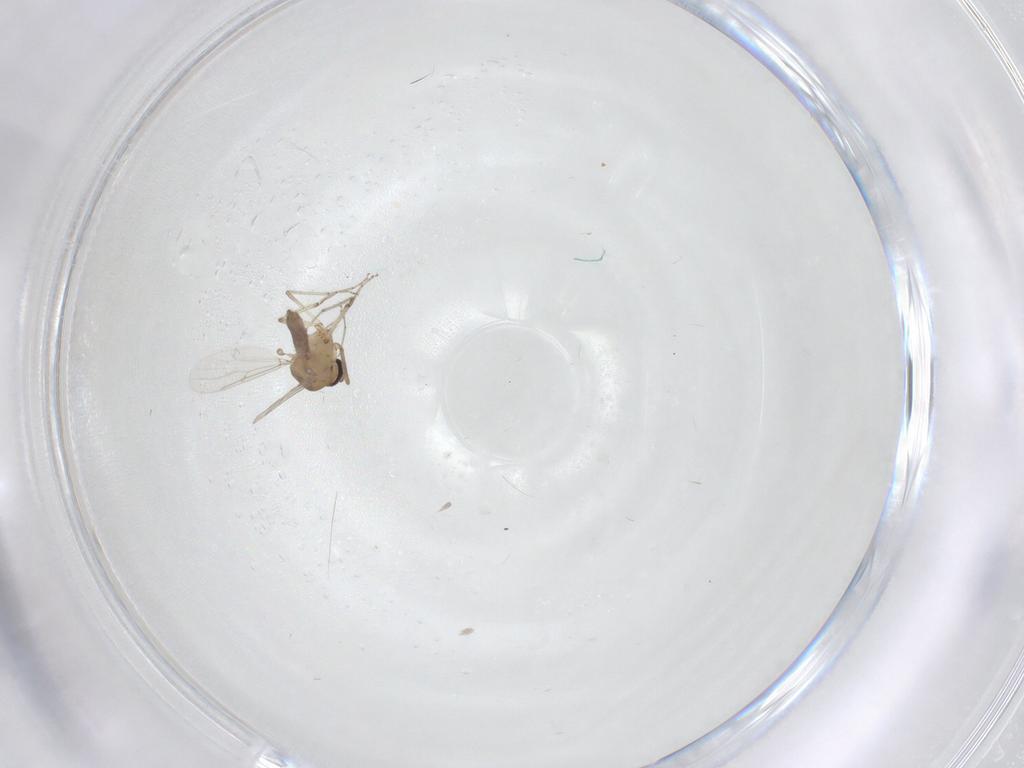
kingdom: Animalia
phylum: Arthropoda
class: Insecta
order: Diptera
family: Ceratopogonidae
